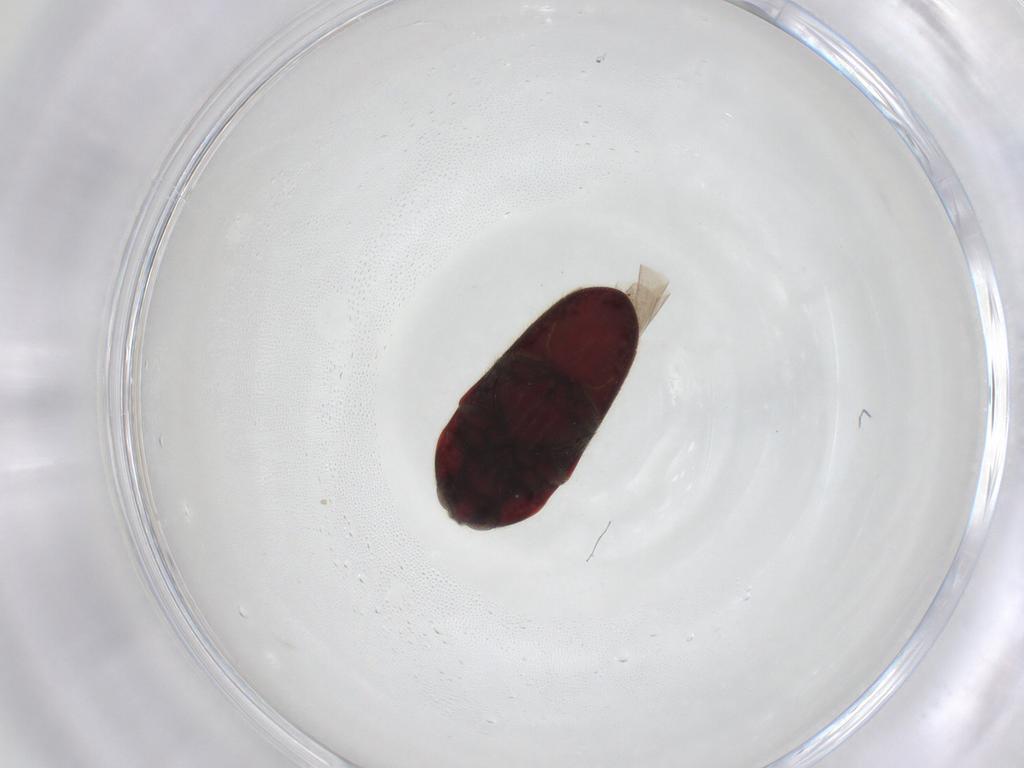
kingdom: Animalia
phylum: Arthropoda
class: Insecta
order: Coleoptera
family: Throscidae
